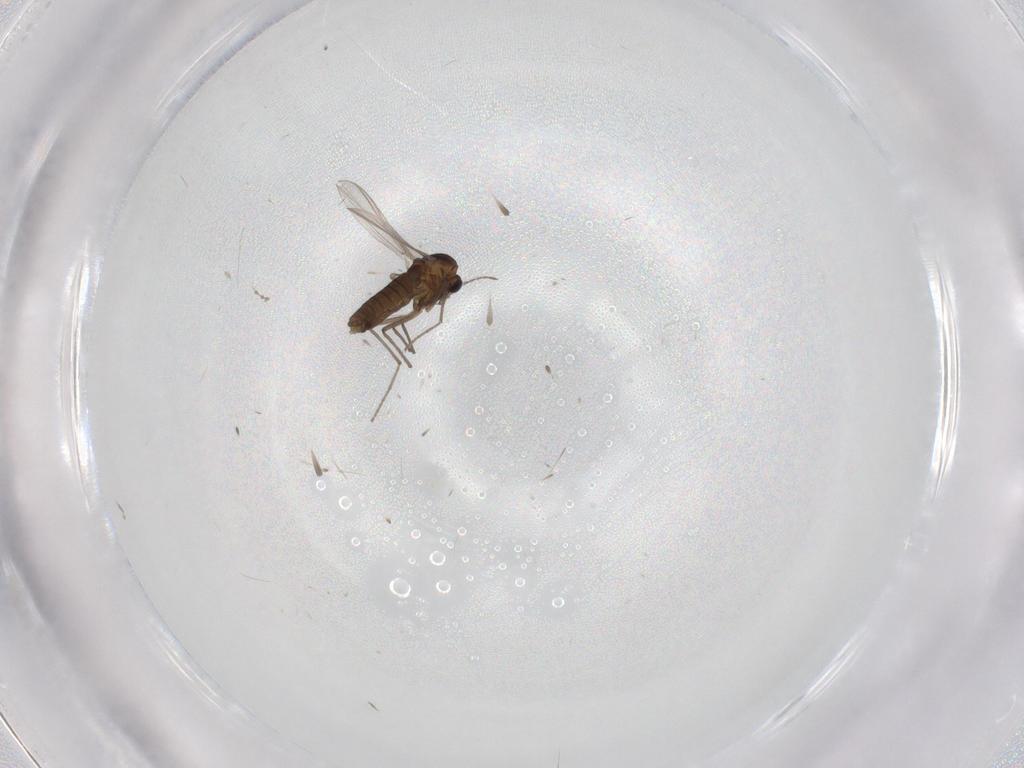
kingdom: Animalia
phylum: Arthropoda
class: Insecta
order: Diptera
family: Chironomidae
